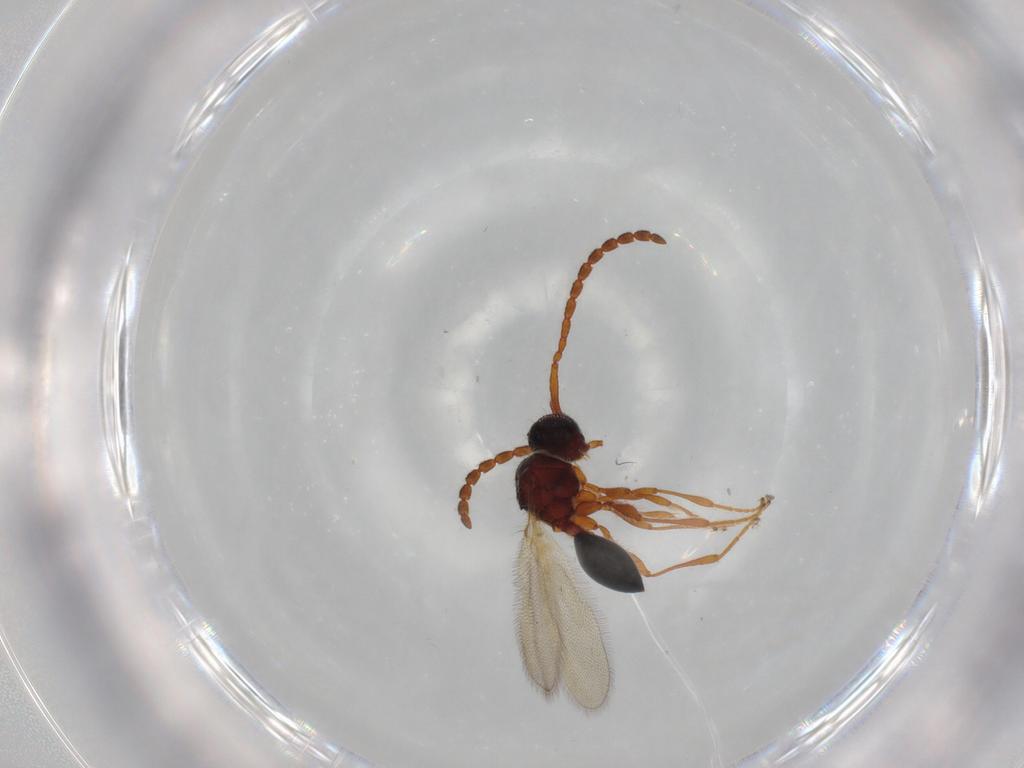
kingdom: Animalia
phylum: Arthropoda
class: Insecta
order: Hymenoptera
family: Diapriidae
